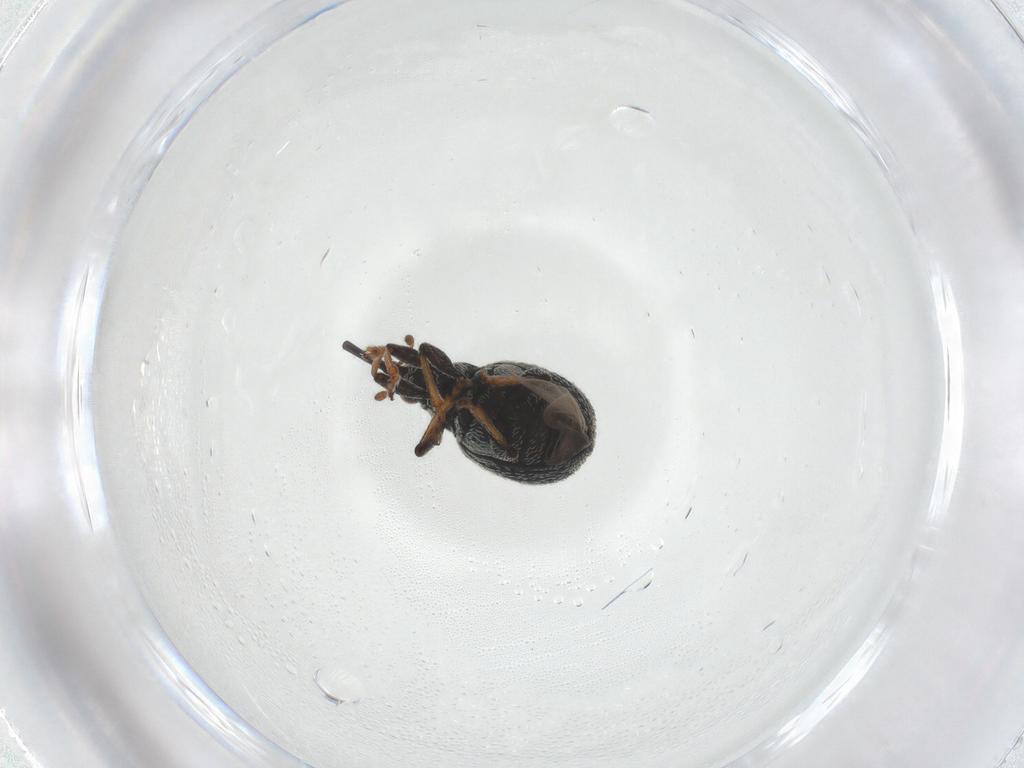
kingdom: Animalia
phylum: Arthropoda
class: Insecta
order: Coleoptera
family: Brentidae
